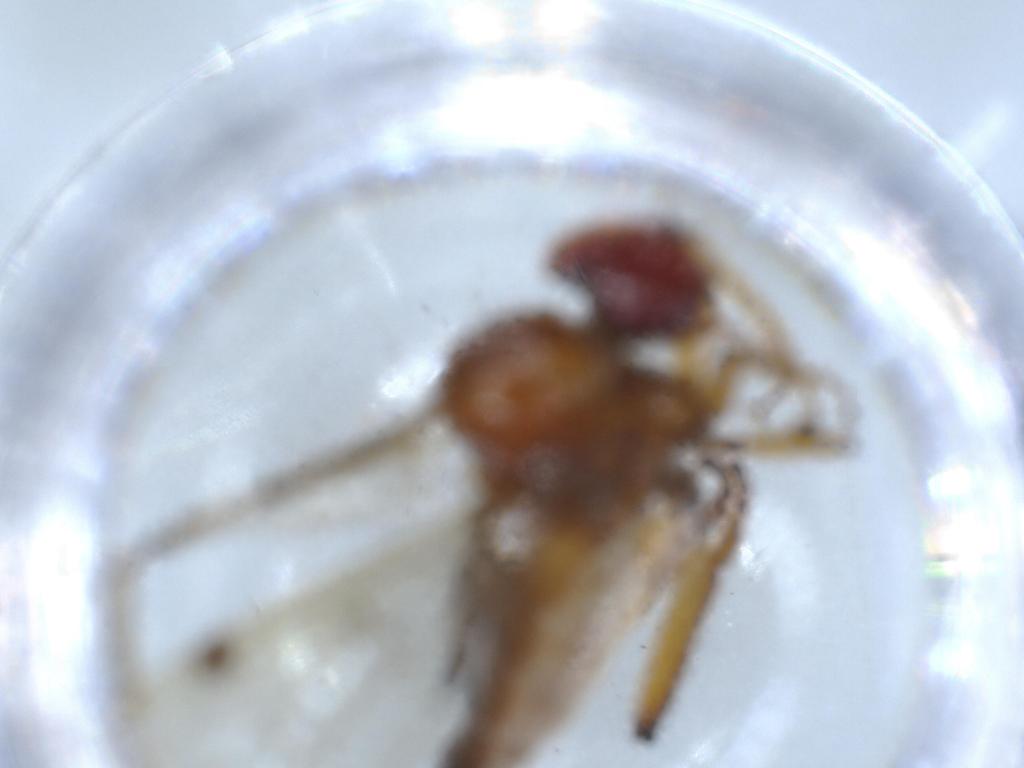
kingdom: Animalia
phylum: Arthropoda
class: Insecta
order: Diptera
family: Hybotidae
